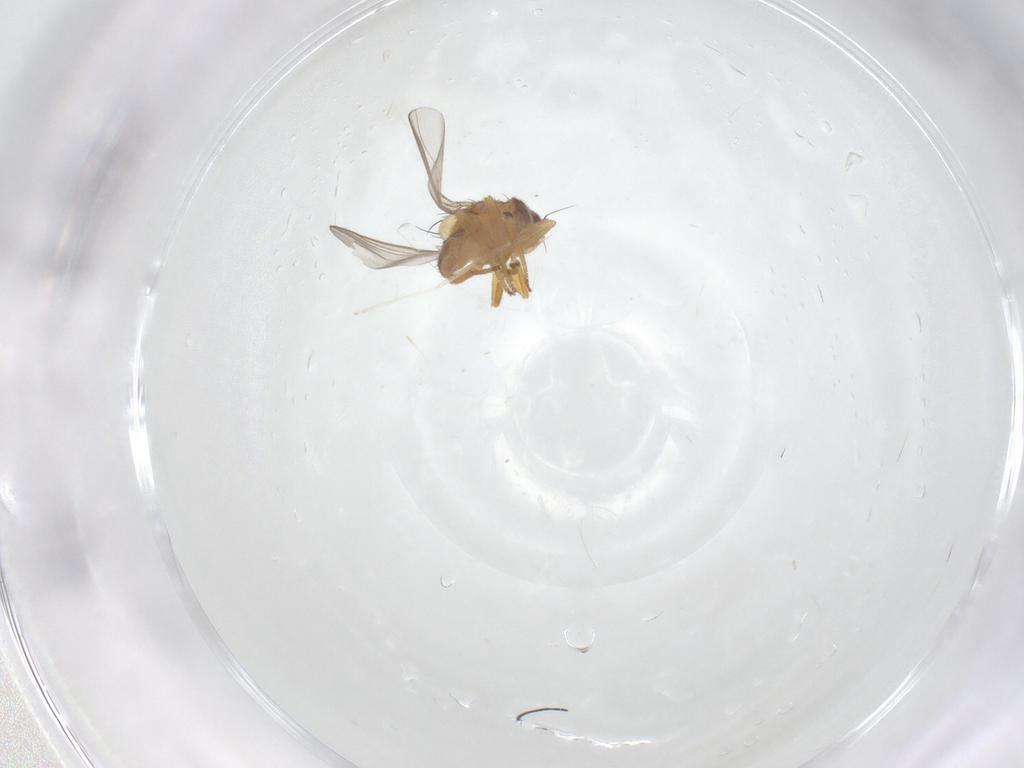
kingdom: Animalia
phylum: Arthropoda
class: Insecta
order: Diptera
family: Chloropidae
